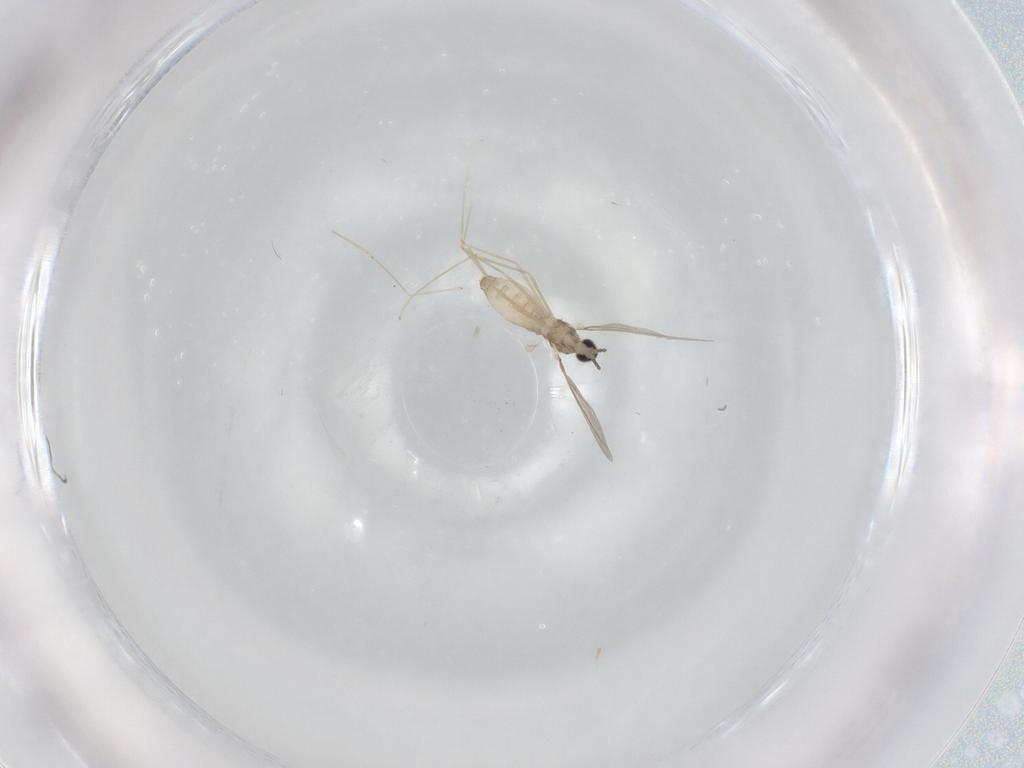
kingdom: Animalia
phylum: Arthropoda
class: Insecta
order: Diptera
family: Cecidomyiidae
